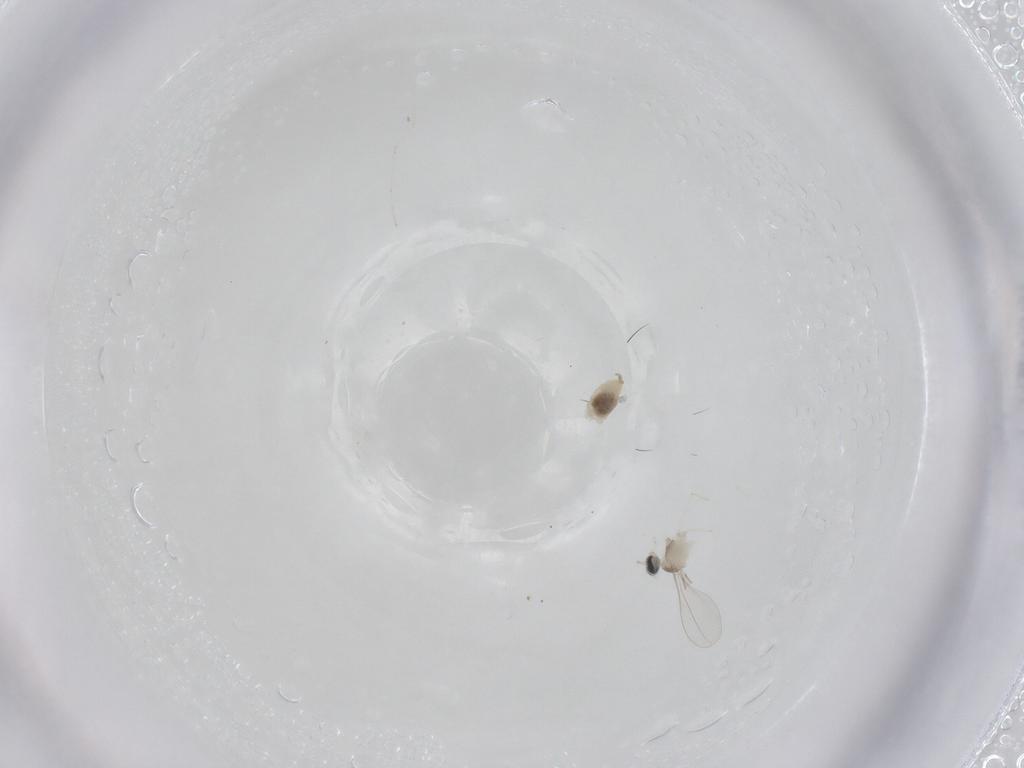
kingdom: Animalia
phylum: Arthropoda
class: Insecta
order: Diptera
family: Cecidomyiidae
